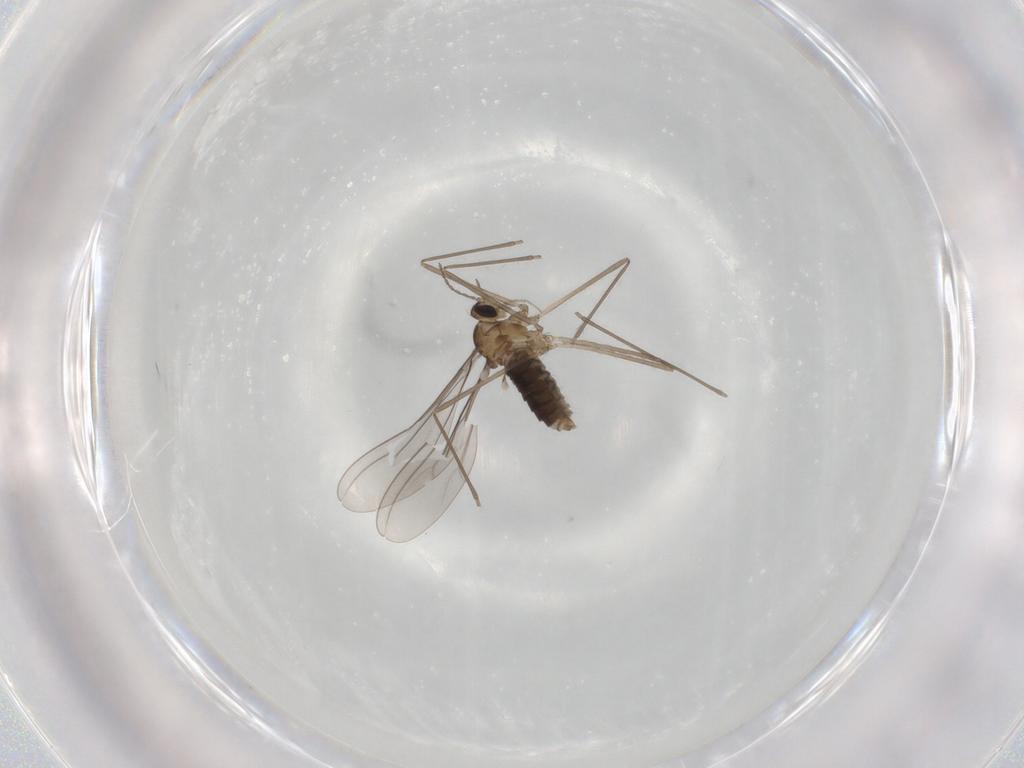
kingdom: Animalia
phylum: Arthropoda
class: Insecta
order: Diptera
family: Cecidomyiidae
